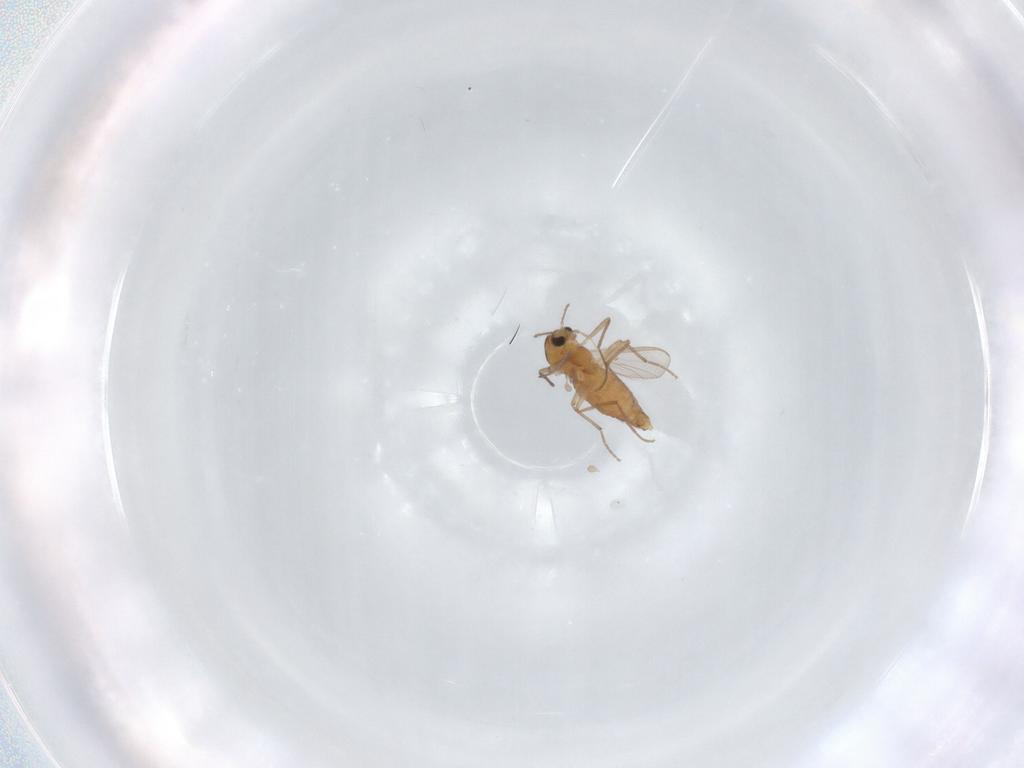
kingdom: Animalia
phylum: Arthropoda
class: Insecta
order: Diptera
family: Chironomidae
